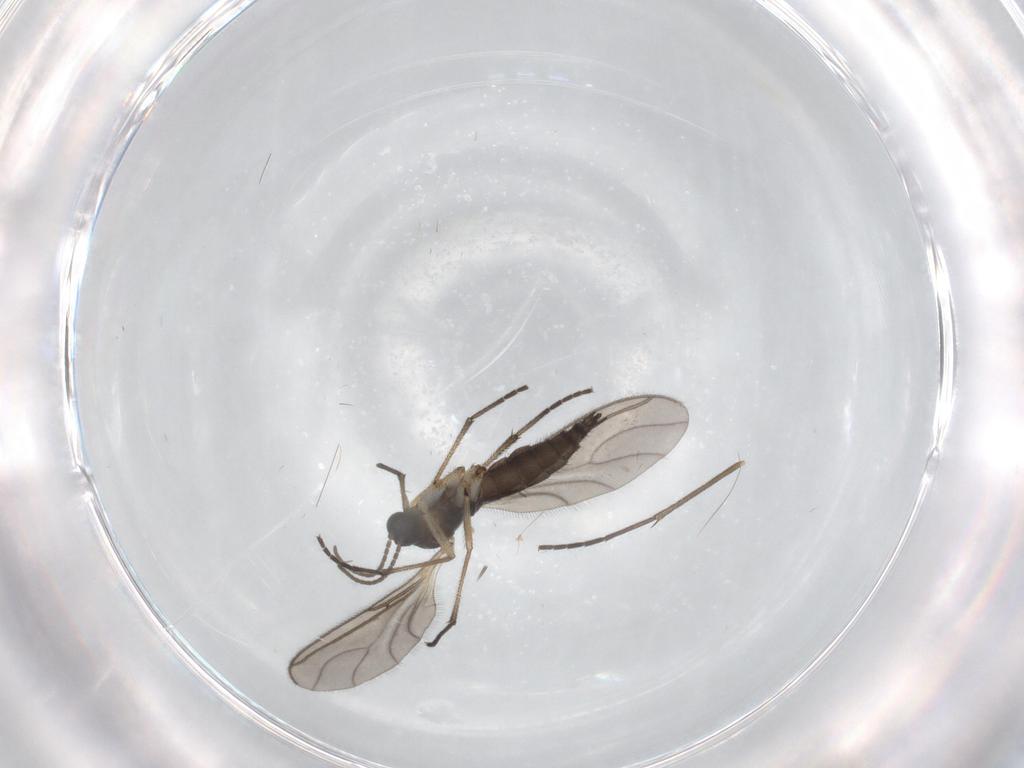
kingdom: Animalia
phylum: Arthropoda
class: Insecta
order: Diptera
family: Sciaridae
